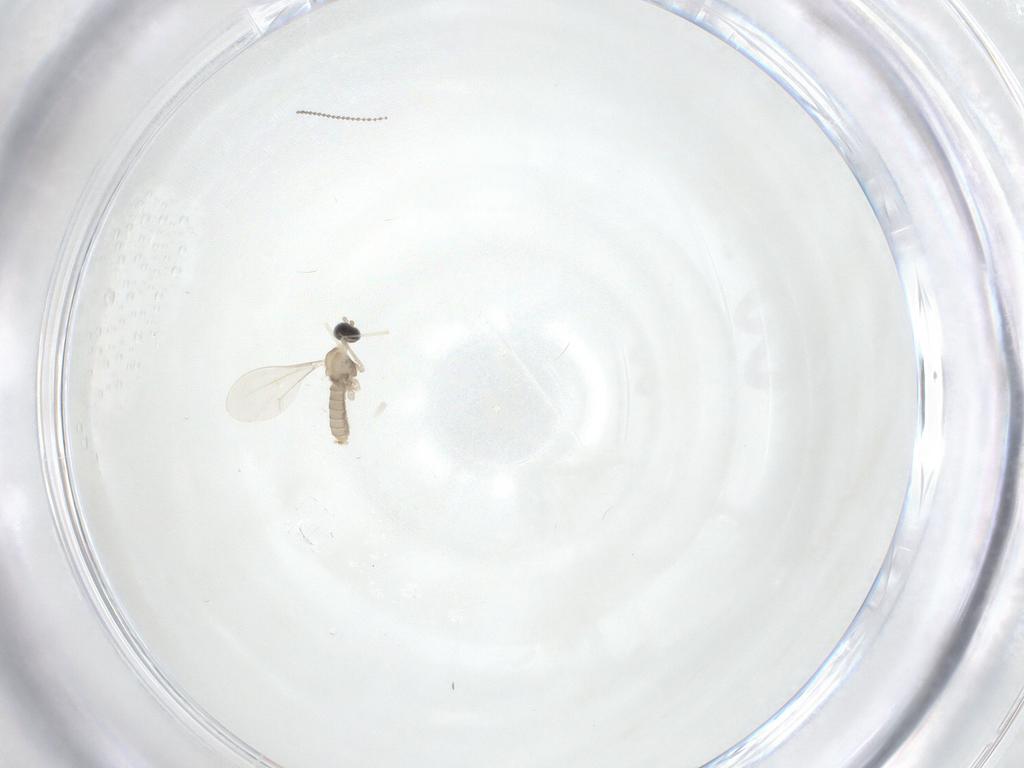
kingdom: Animalia
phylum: Arthropoda
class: Insecta
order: Diptera
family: Cecidomyiidae
